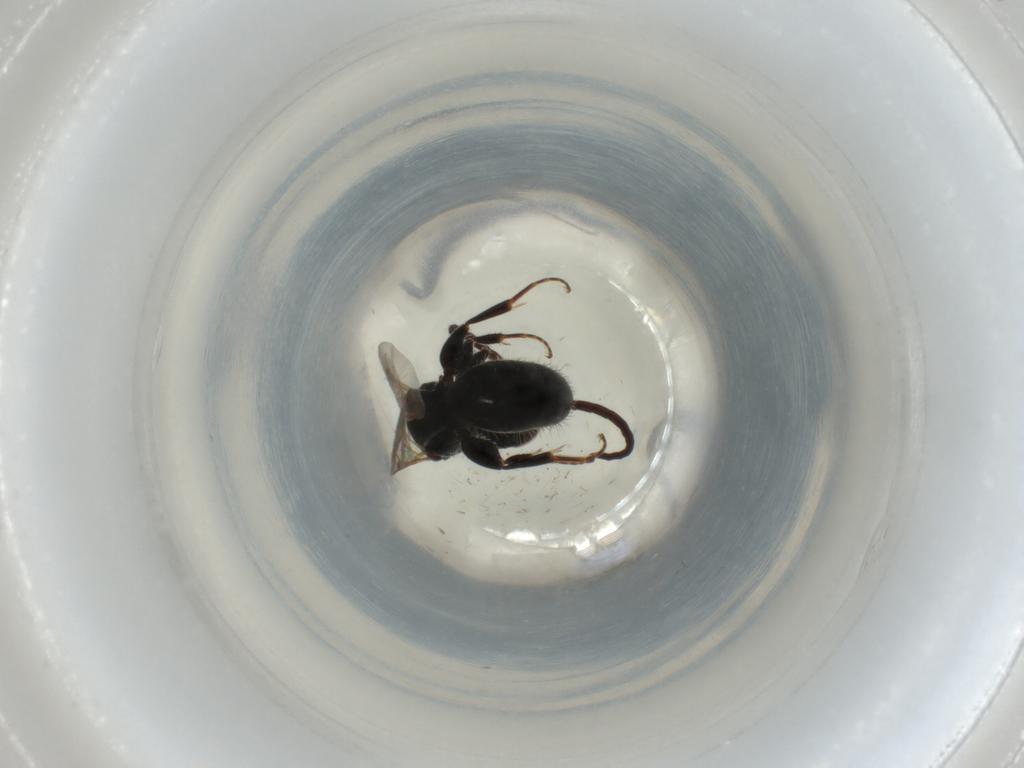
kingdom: Animalia
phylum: Arthropoda
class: Insecta
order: Hymenoptera
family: Bethylidae
